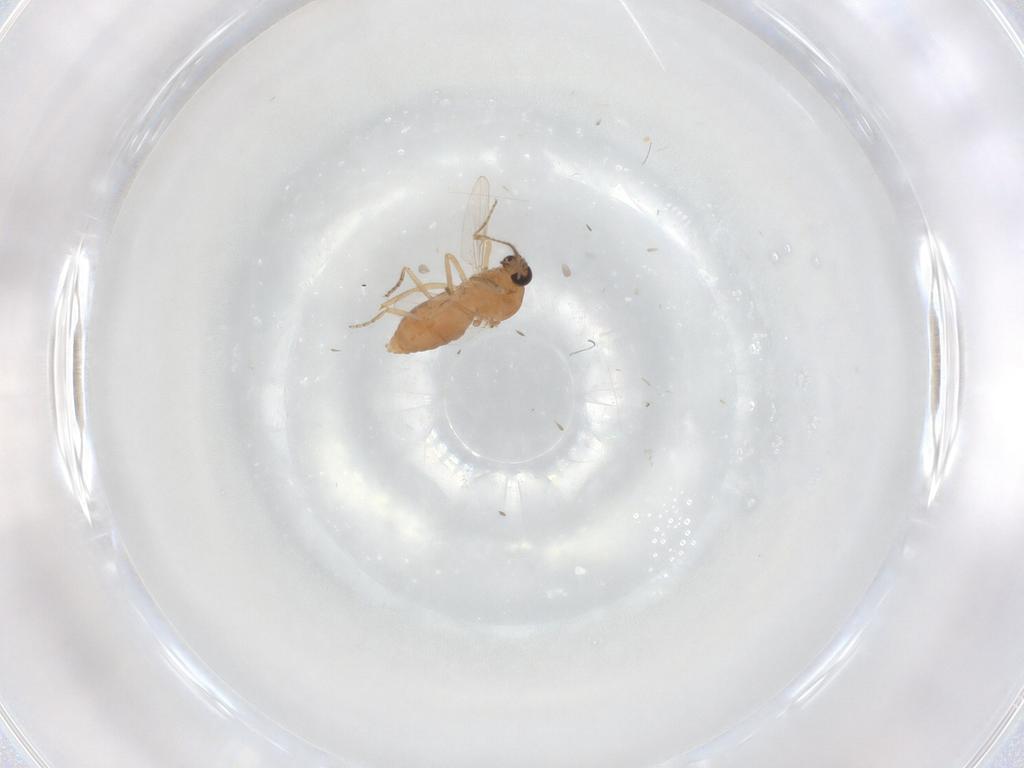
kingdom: Animalia
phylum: Arthropoda
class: Insecta
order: Diptera
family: Ceratopogonidae
